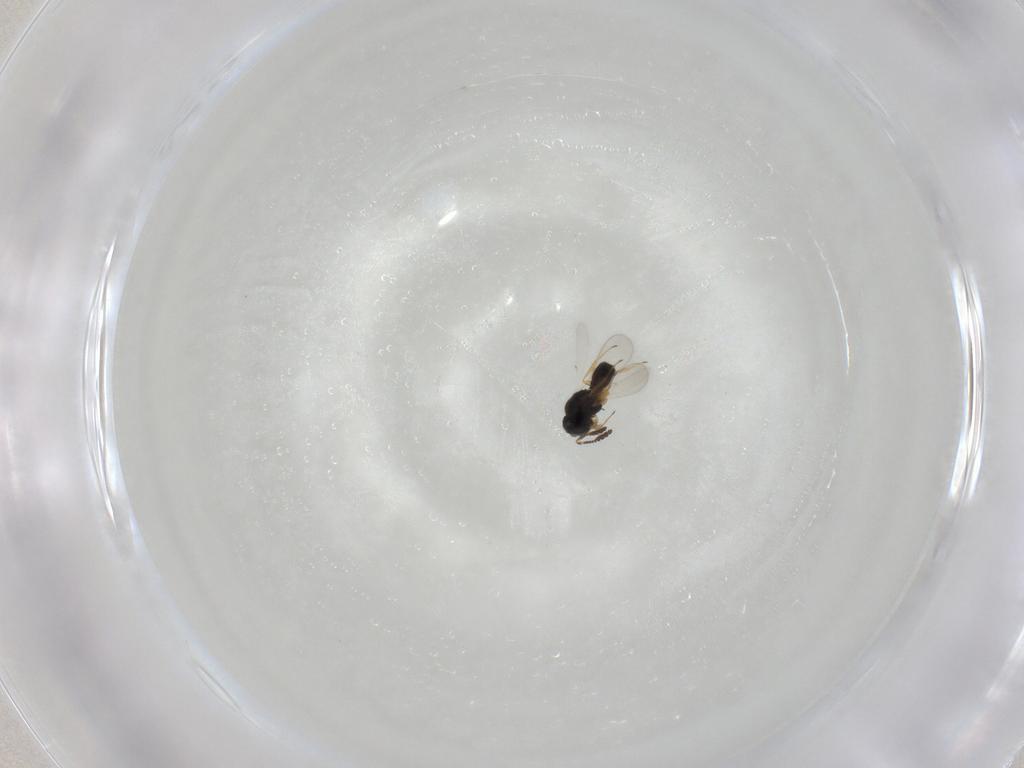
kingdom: Animalia
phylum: Arthropoda
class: Insecta
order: Hymenoptera
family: Scelionidae
